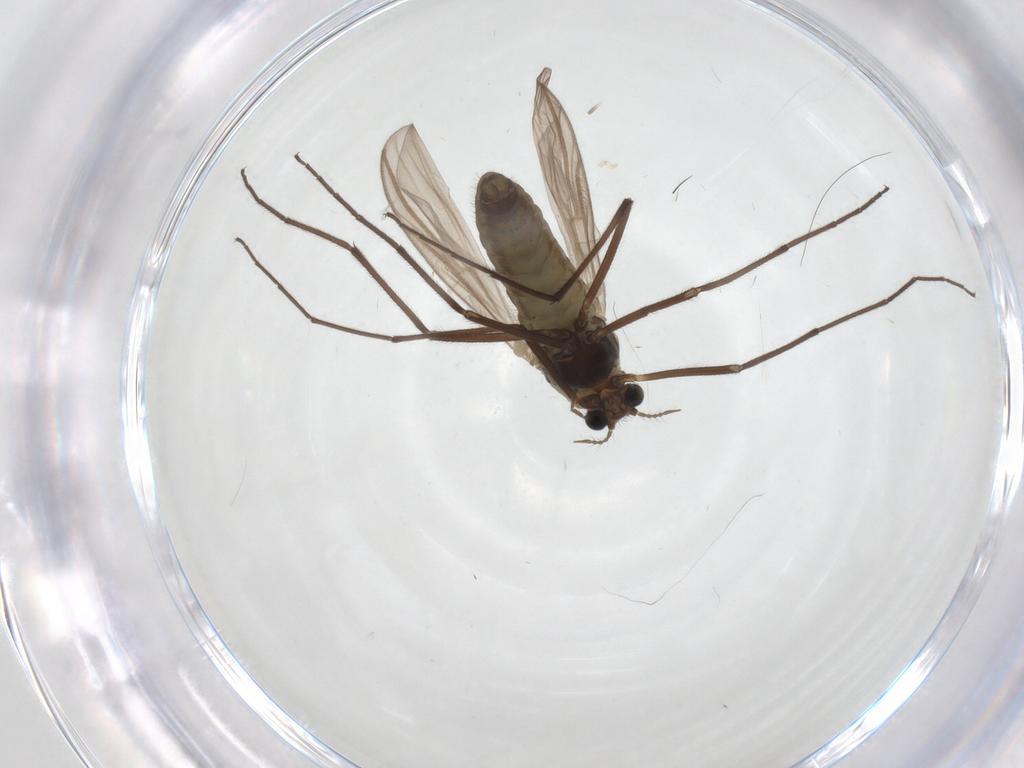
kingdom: Animalia
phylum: Arthropoda
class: Insecta
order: Diptera
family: Chironomidae
